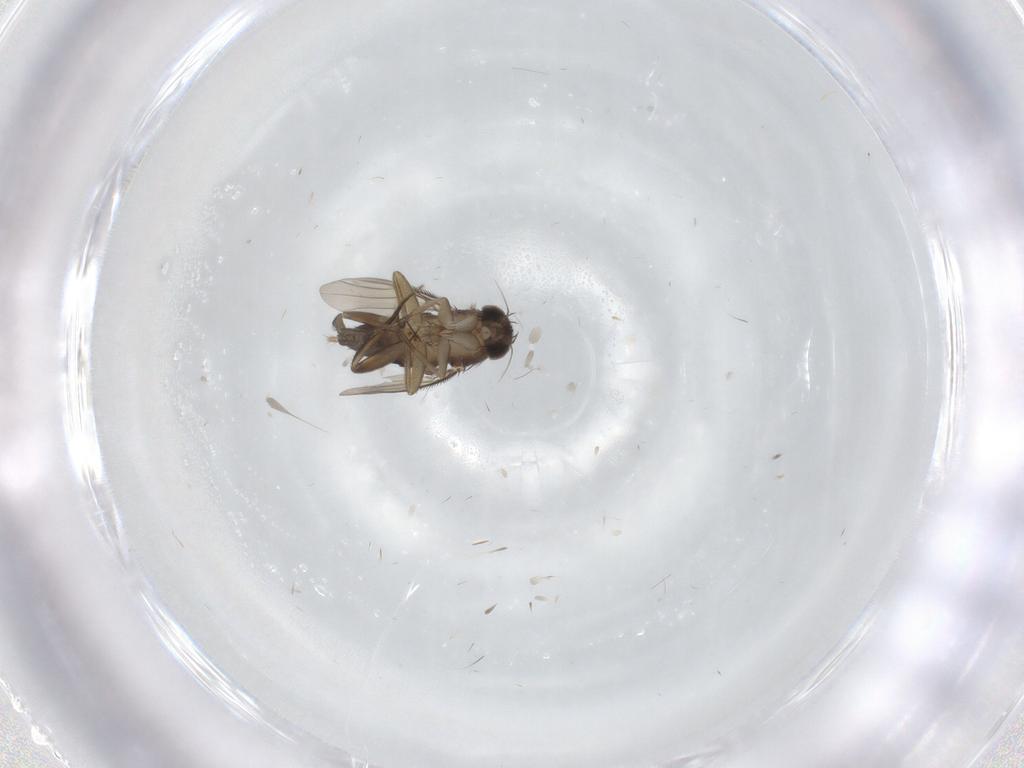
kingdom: Animalia
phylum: Arthropoda
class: Insecta
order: Diptera
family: Phoridae
